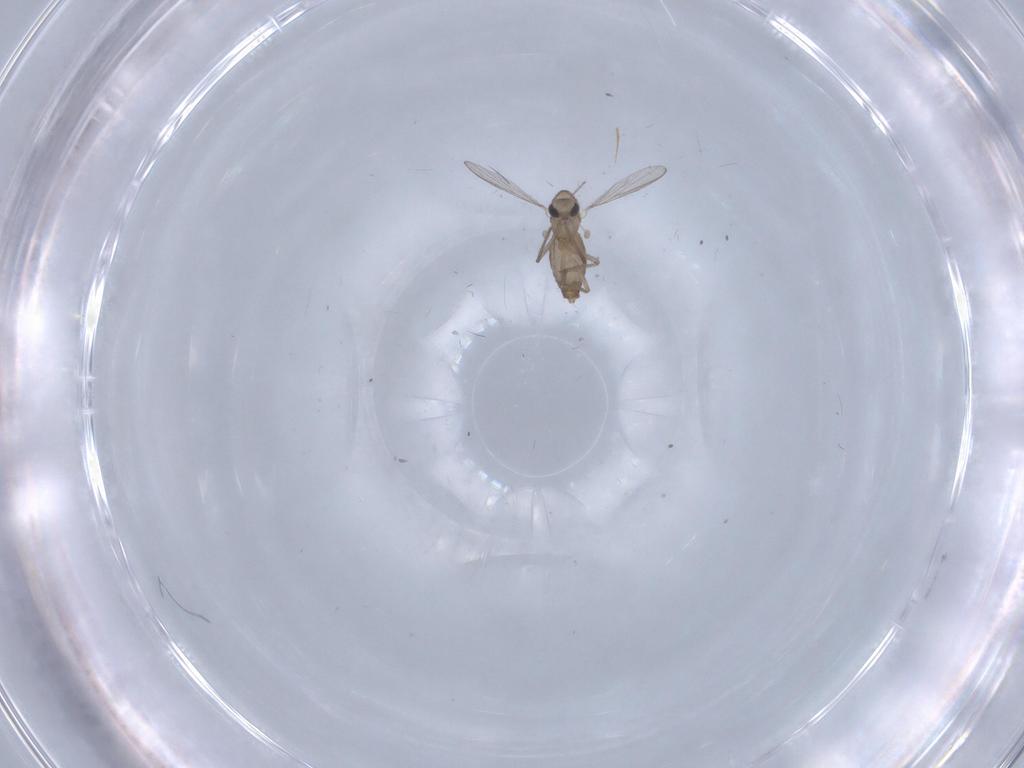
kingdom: Animalia
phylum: Arthropoda
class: Insecta
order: Diptera
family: Chironomidae
